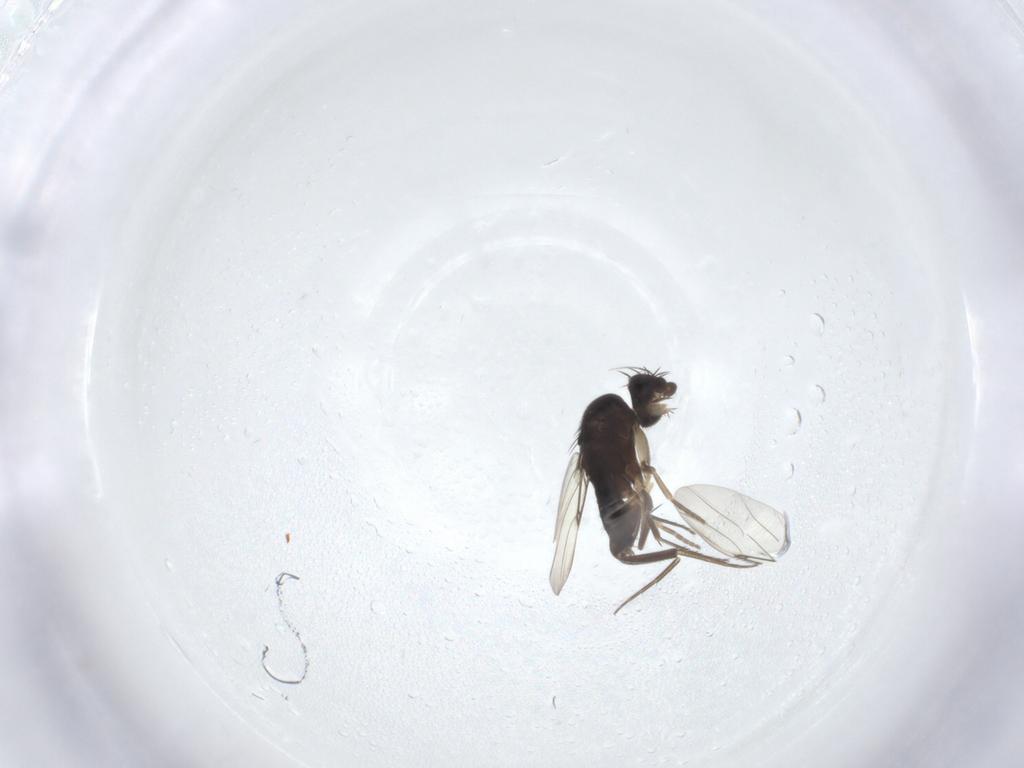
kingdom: Animalia
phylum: Arthropoda
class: Insecta
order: Diptera
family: Phoridae
